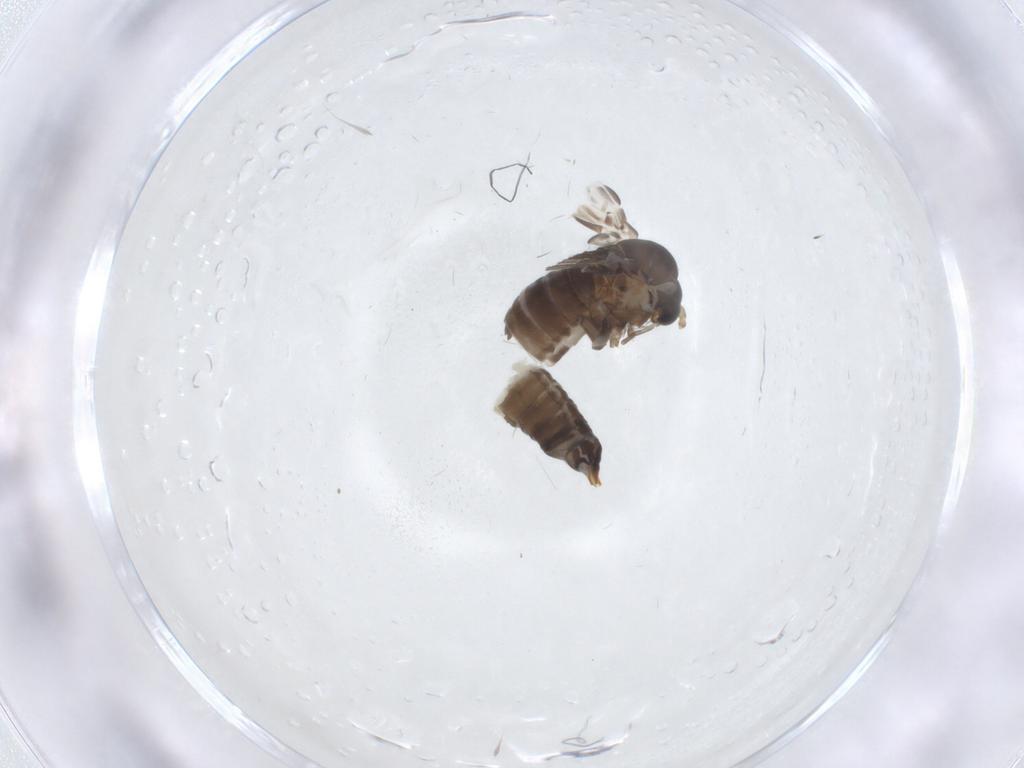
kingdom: Animalia
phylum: Arthropoda
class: Insecta
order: Diptera
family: Psychodidae
